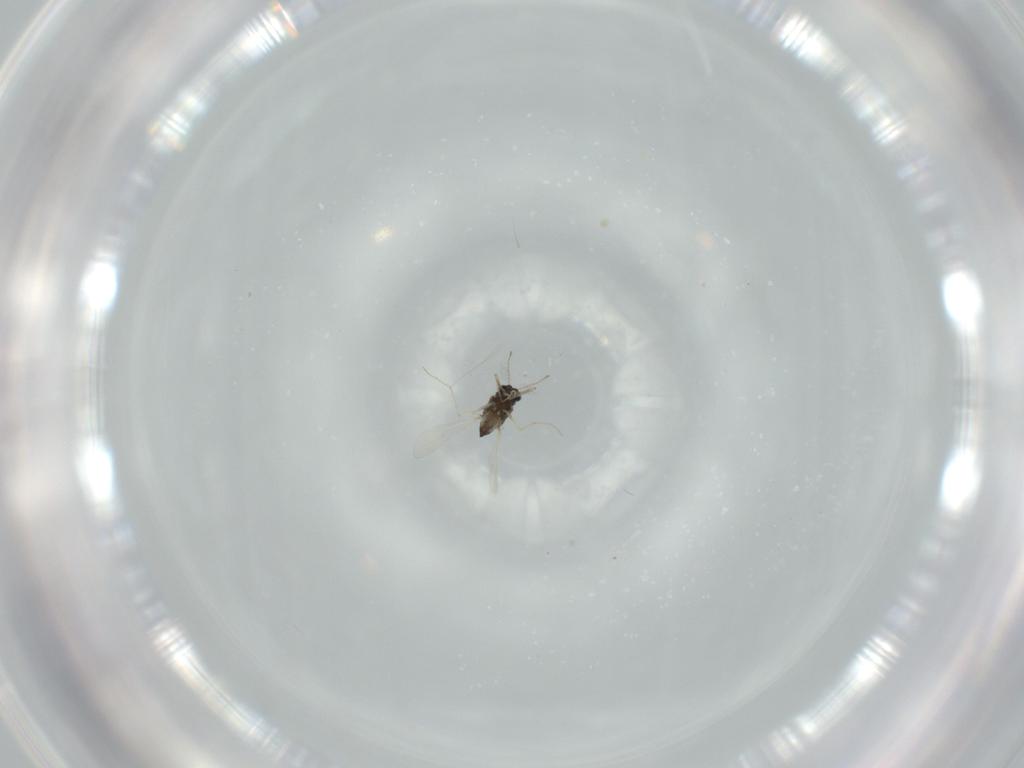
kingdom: Animalia
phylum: Arthropoda
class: Insecta
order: Diptera
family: Chironomidae
